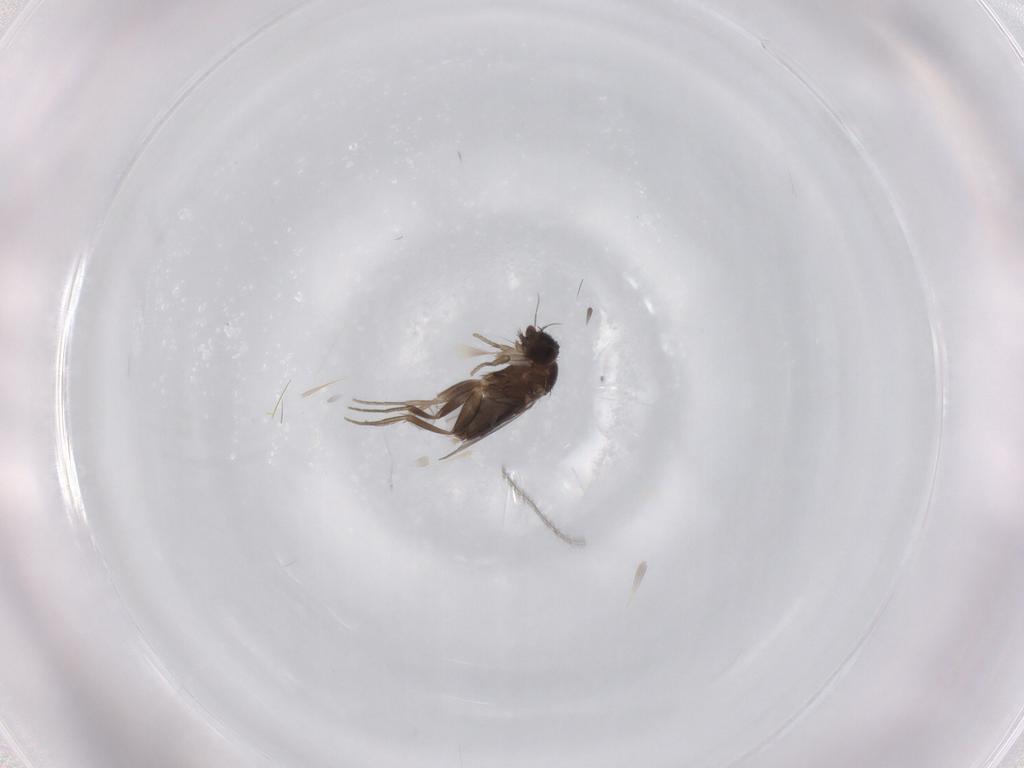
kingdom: Animalia
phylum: Arthropoda
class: Insecta
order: Diptera
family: Phoridae
